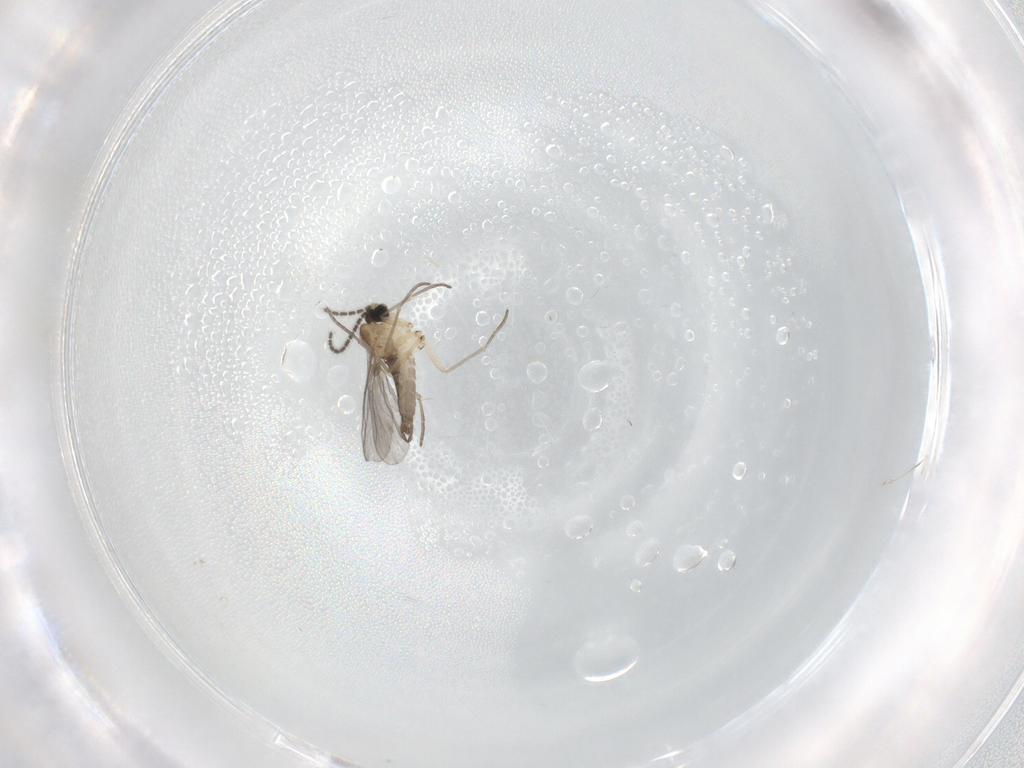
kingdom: Animalia
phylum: Arthropoda
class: Insecta
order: Diptera
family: Sciaridae
